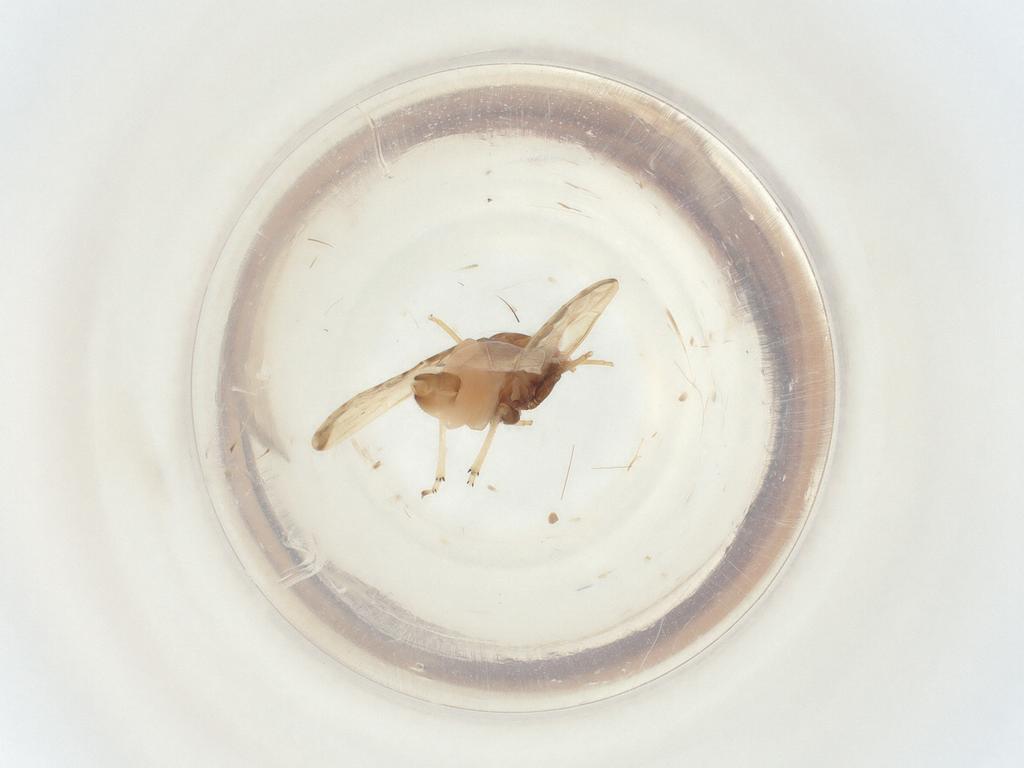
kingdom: Animalia
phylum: Arthropoda
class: Insecta
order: Hemiptera
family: Psyllidae
